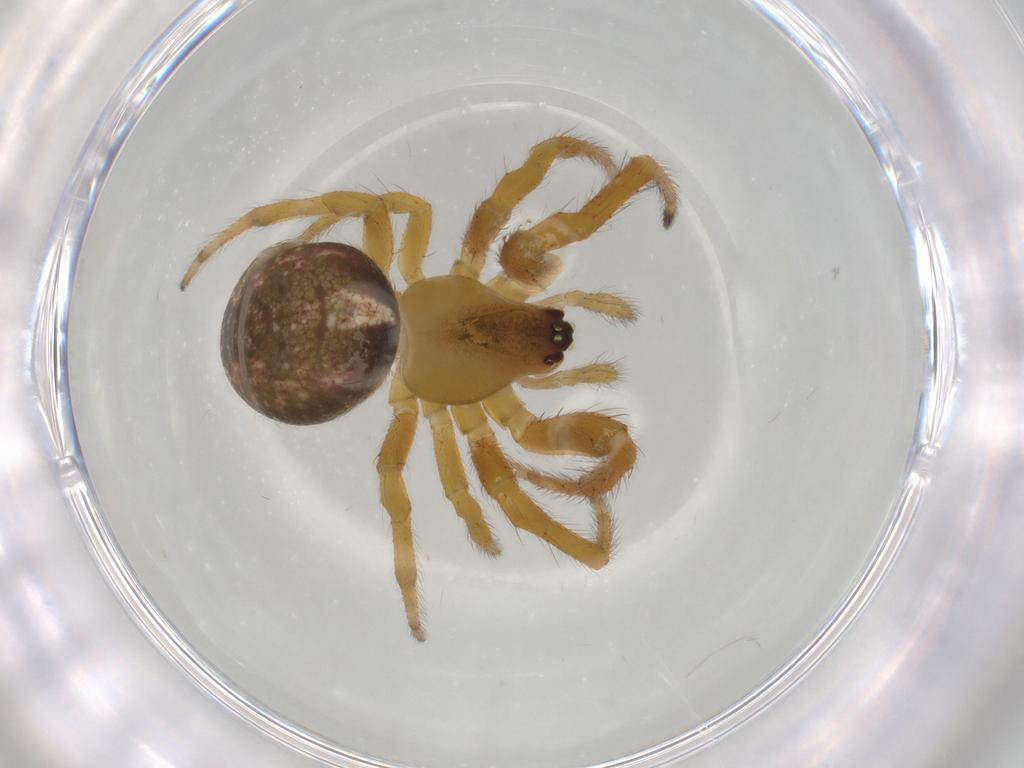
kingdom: Animalia
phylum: Arthropoda
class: Arachnida
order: Araneae
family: Araneidae
